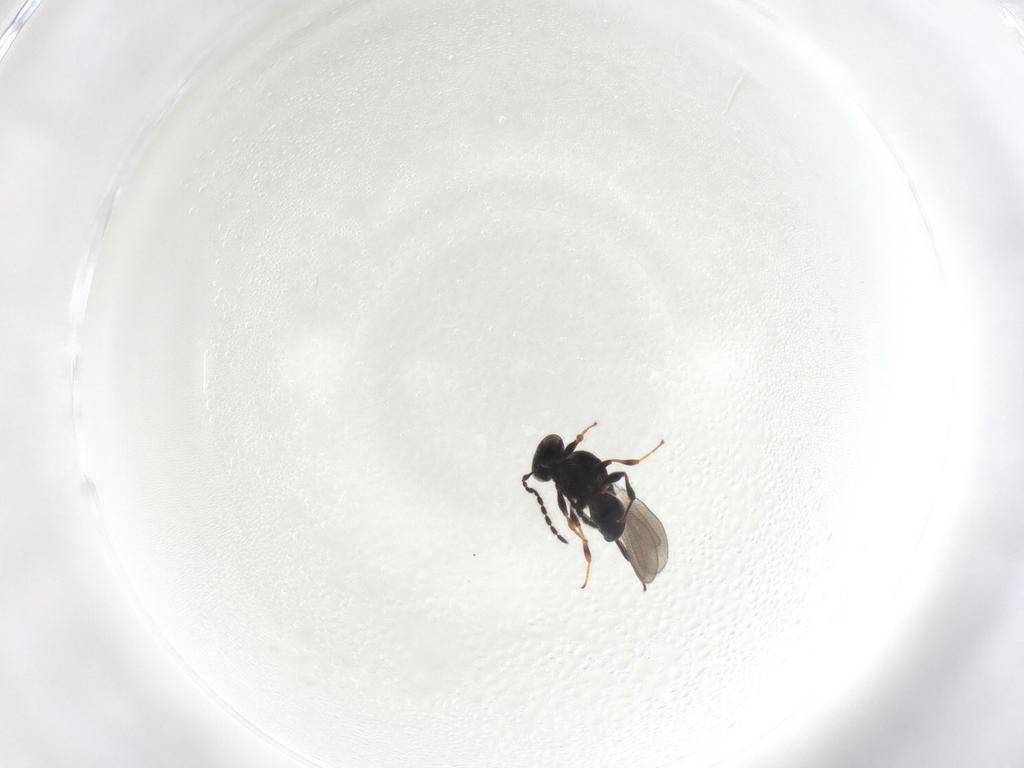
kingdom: Animalia
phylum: Arthropoda
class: Insecta
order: Hymenoptera
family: Platygastridae
